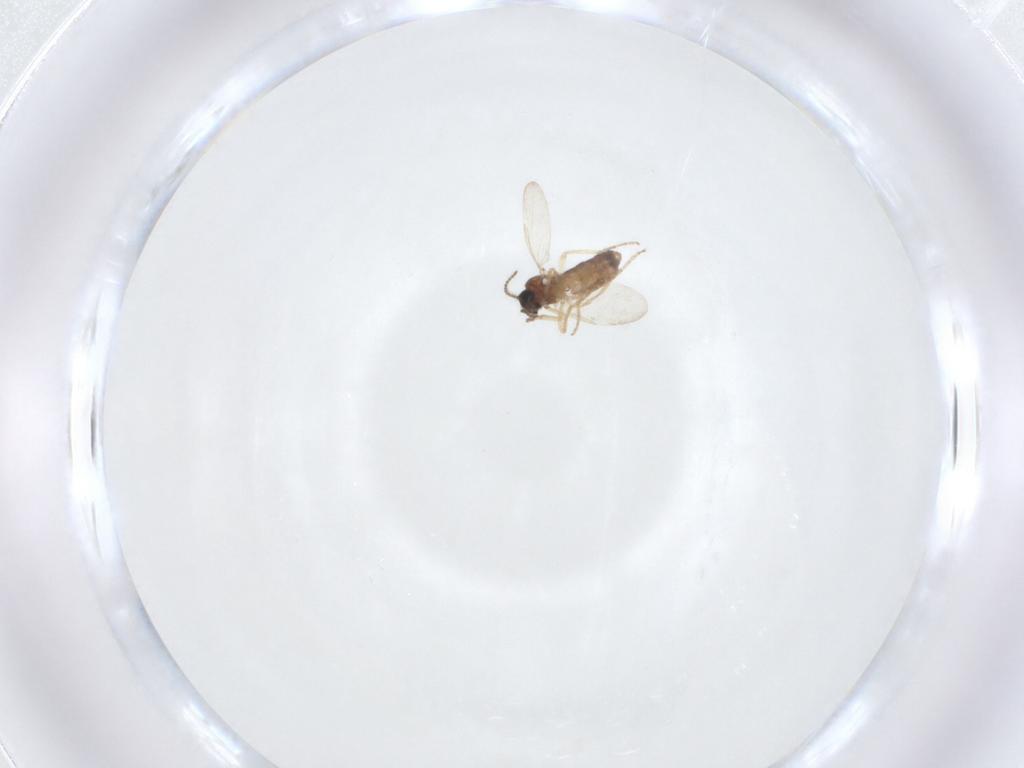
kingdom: Animalia
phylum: Arthropoda
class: Insecta
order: Diptera
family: Ceratopogonidae
